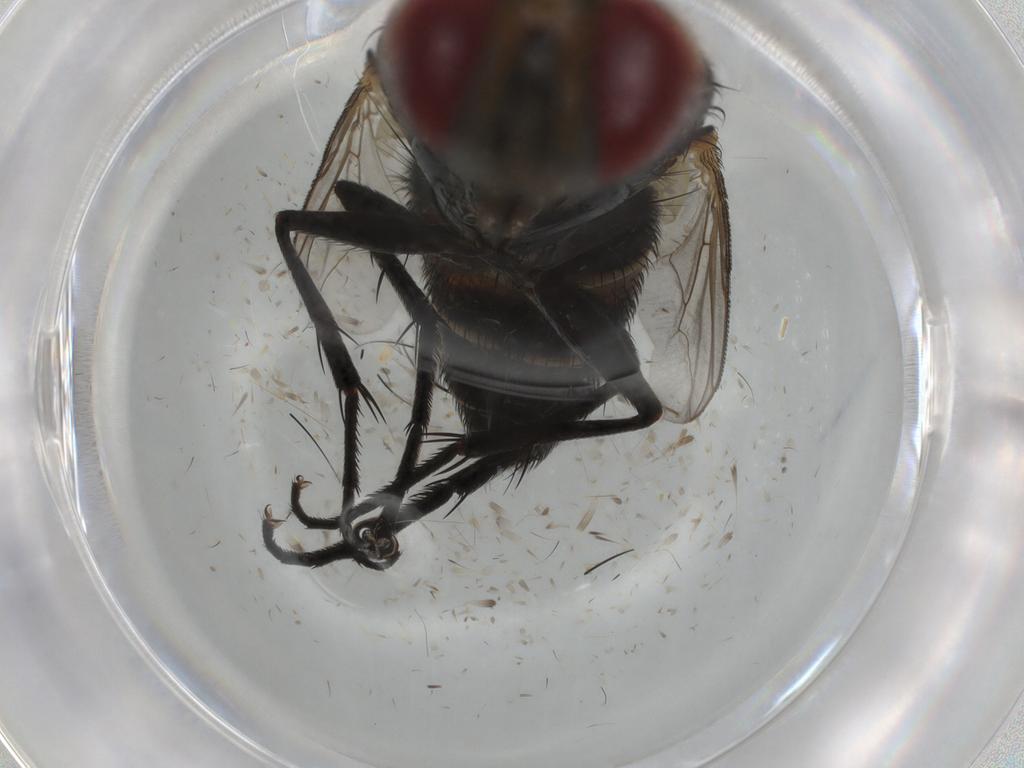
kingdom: Animalia
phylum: Arthropoda
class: Insecta
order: Diptera
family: Anthomyiidae
